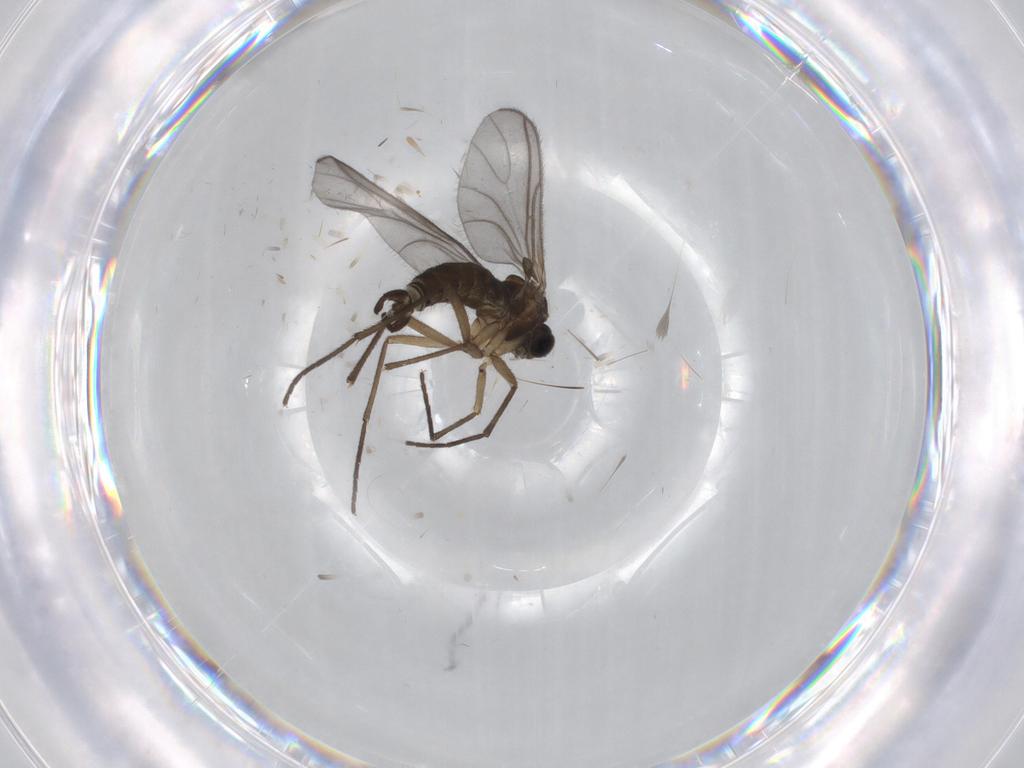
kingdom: Animalia
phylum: Arthropoda
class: Insecta
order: Diptera
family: Sciaridae
